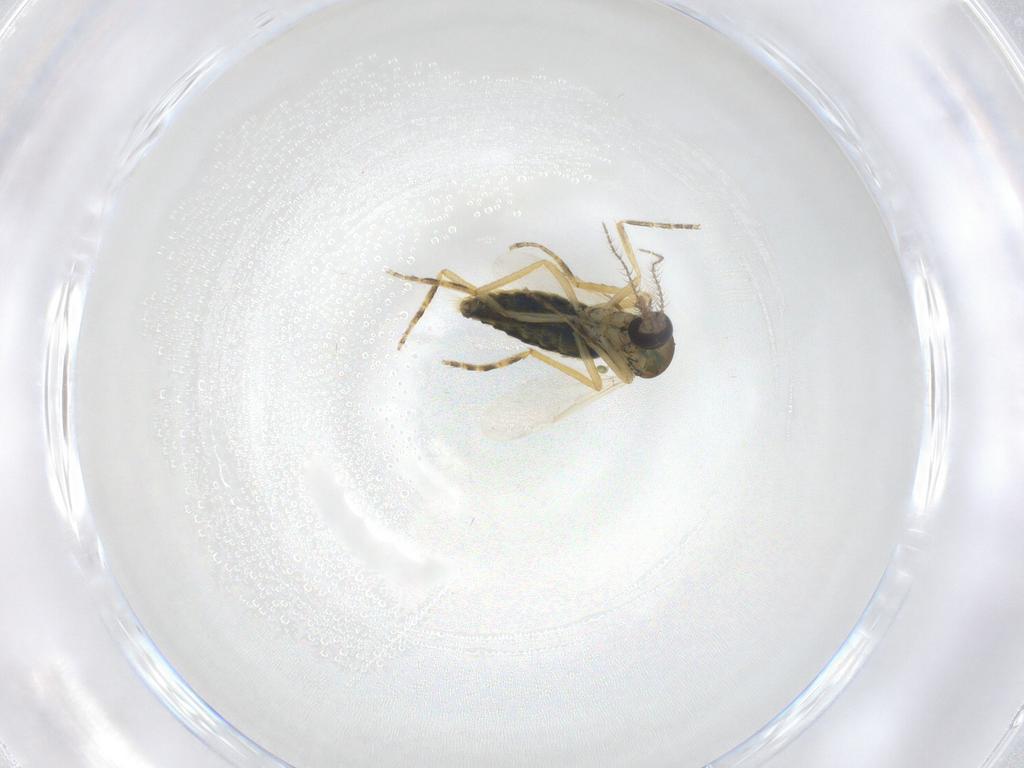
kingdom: Animalia
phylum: Arthropoda
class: Insecta
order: Diptera
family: Ceratopogonidae
